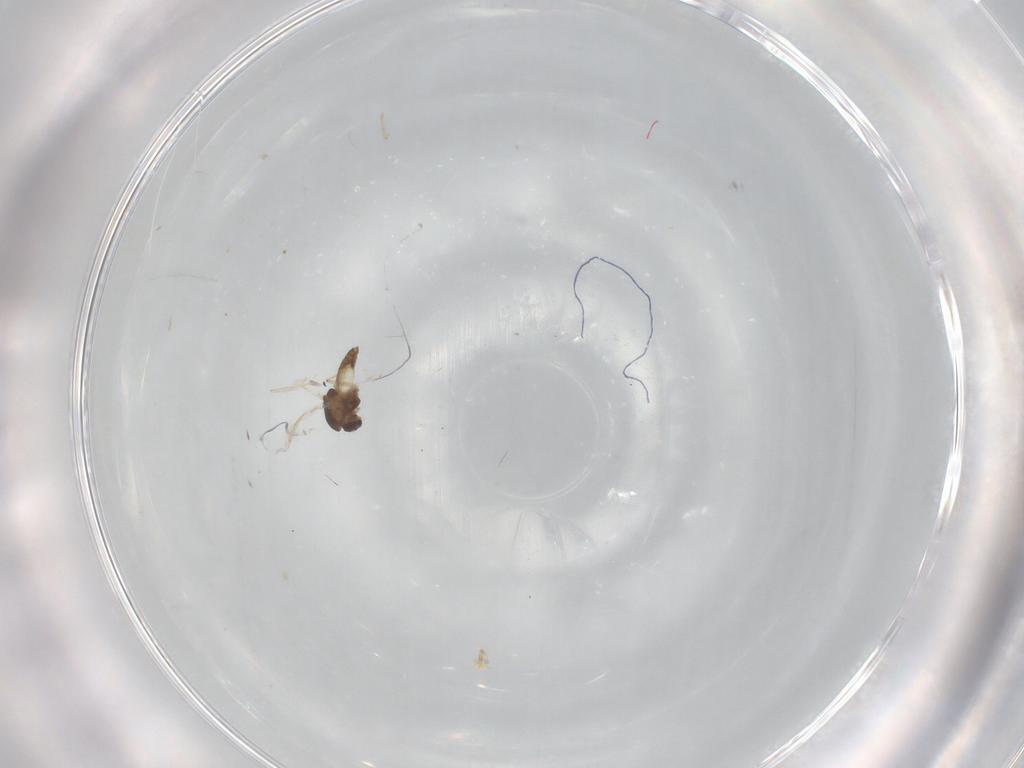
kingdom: Animalia
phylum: Arthropoda
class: Insecta
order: Diptera
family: Chironomidae
